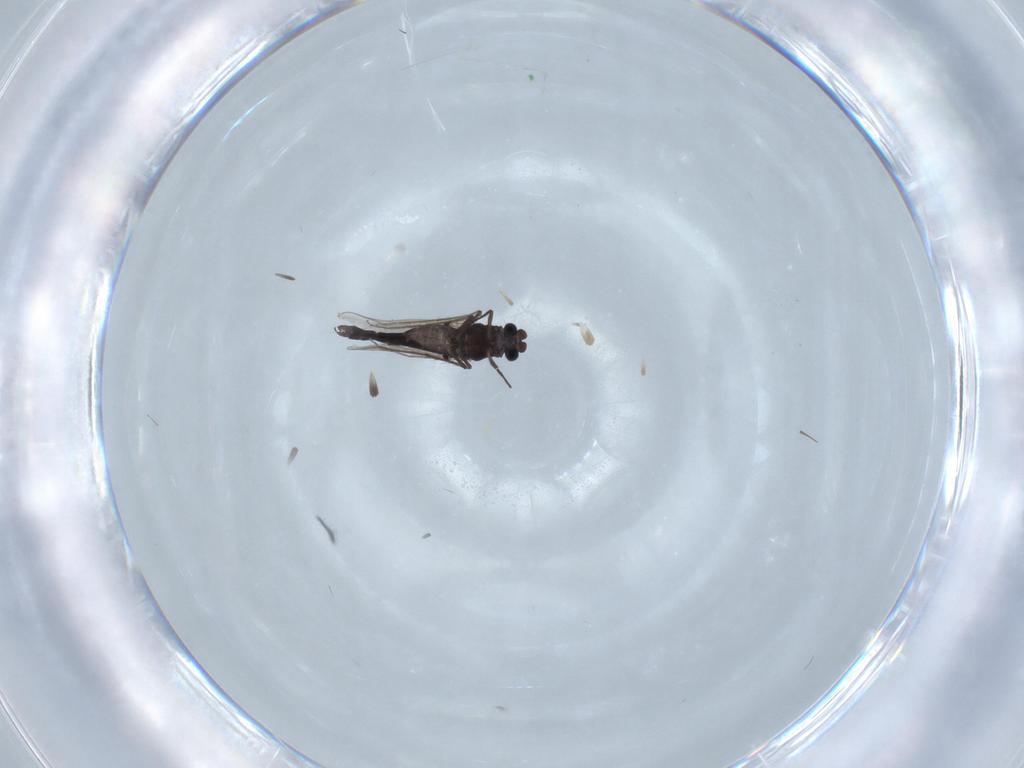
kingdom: Animalia
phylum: Arthropoda
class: Insecta
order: Diptera
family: Chironomidae
